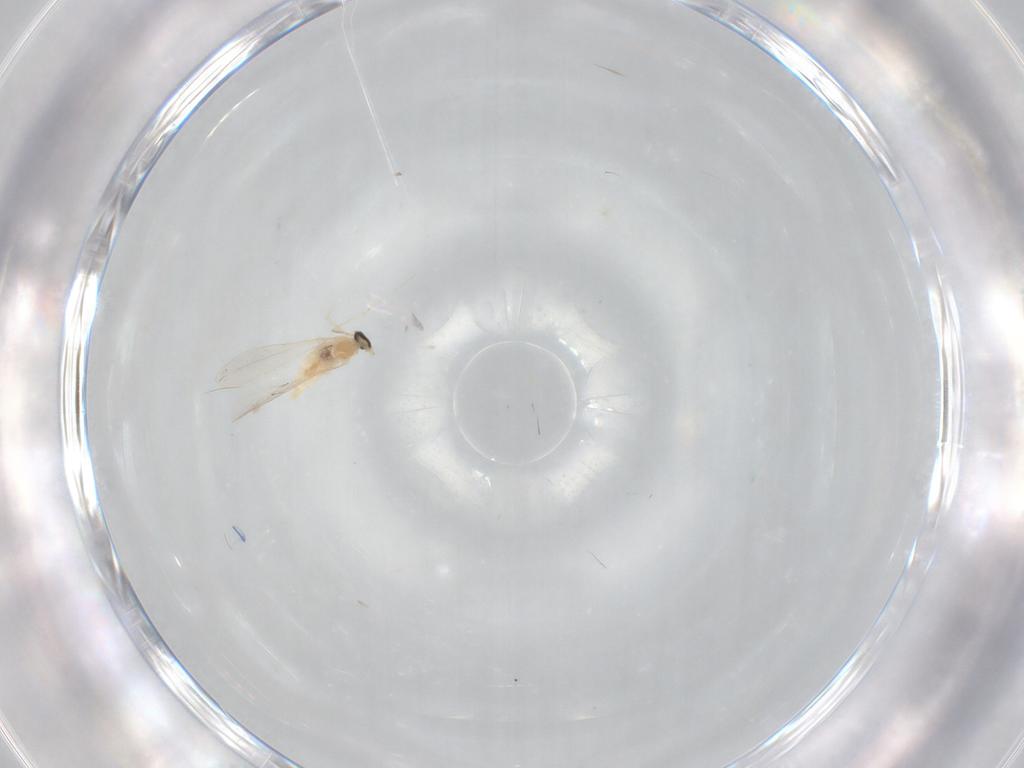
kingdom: Animalia
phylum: Arthropoda
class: Insecta
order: Diptera
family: Cecidomyiidae
